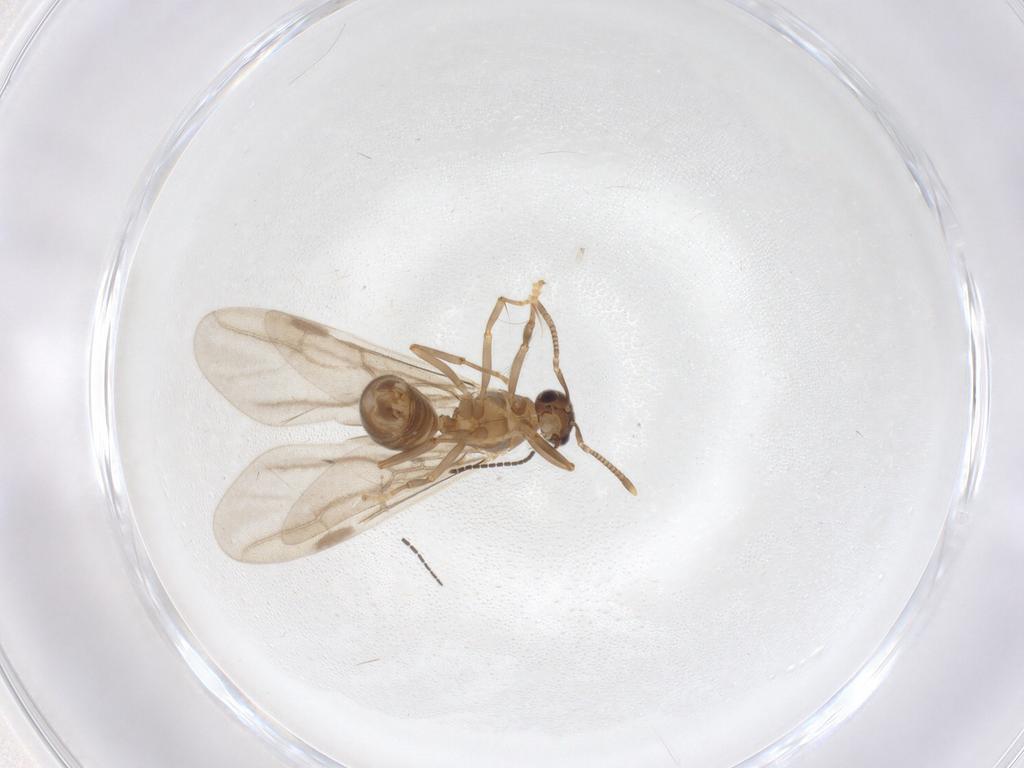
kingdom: Animalia
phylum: Arthropoda
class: Insecta
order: Hymenoptera
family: Formicidae
